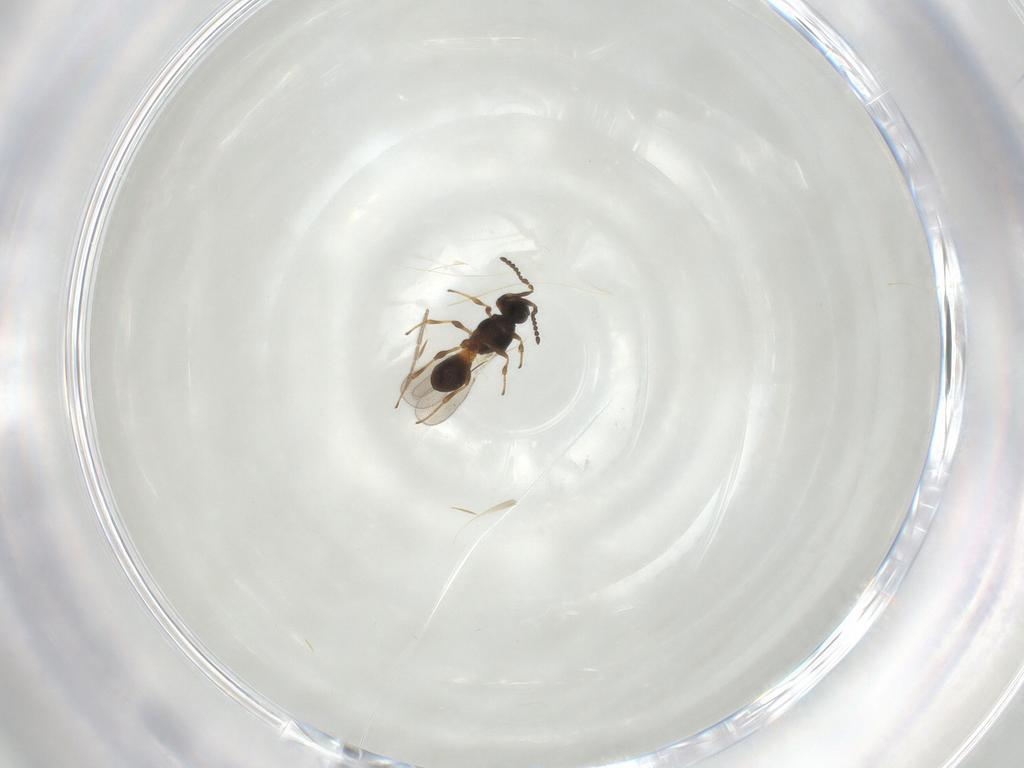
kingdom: Animalia
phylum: Arthropoda
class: Insecta
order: Hymenoptera
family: Platygastridae
